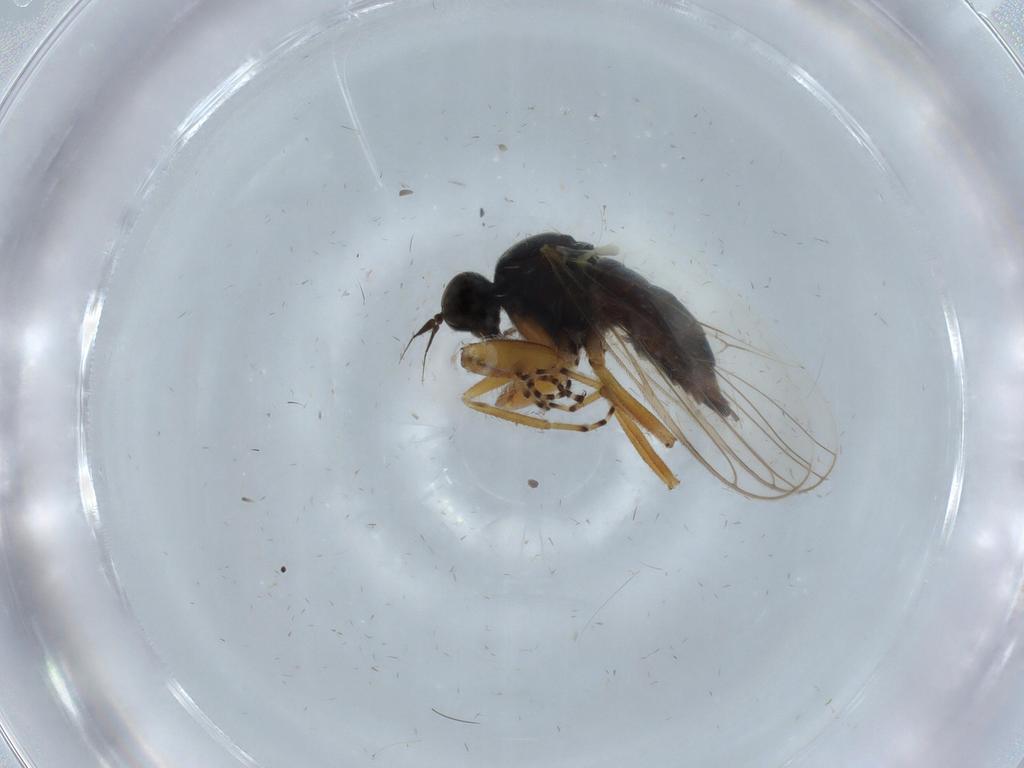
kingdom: Animalia
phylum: Arthropoda
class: Insecta
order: Diptera
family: Hybotidae
